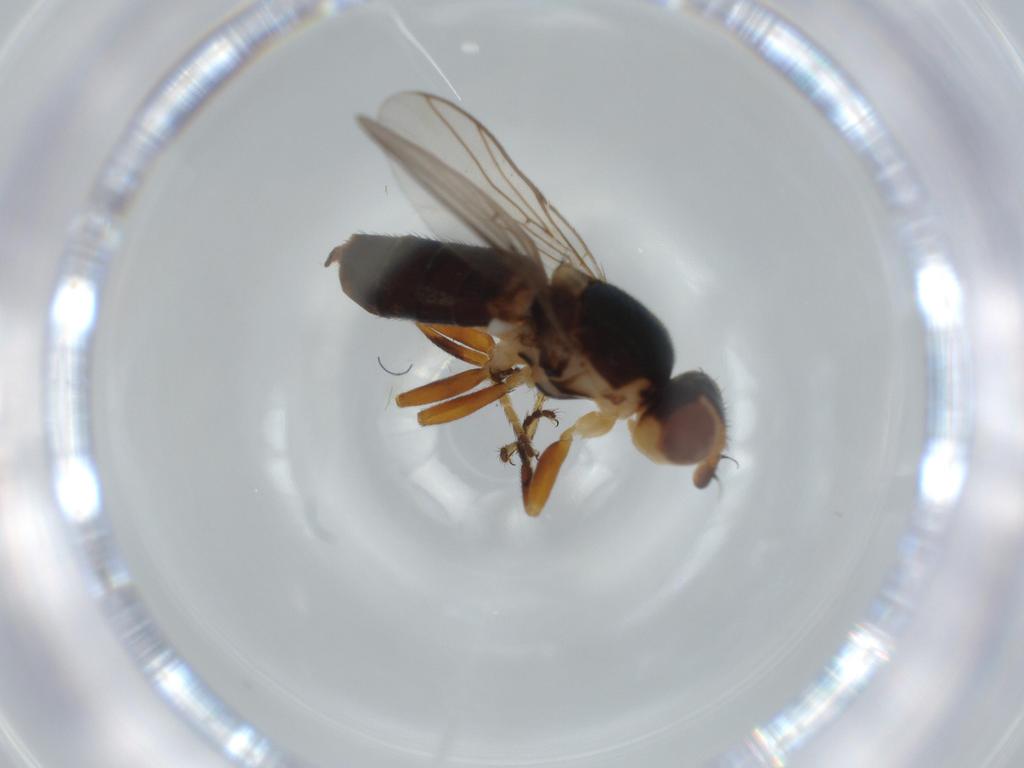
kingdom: Animalia
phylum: Arthropoda
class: Insecta
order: Diptera
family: Chloropidae
